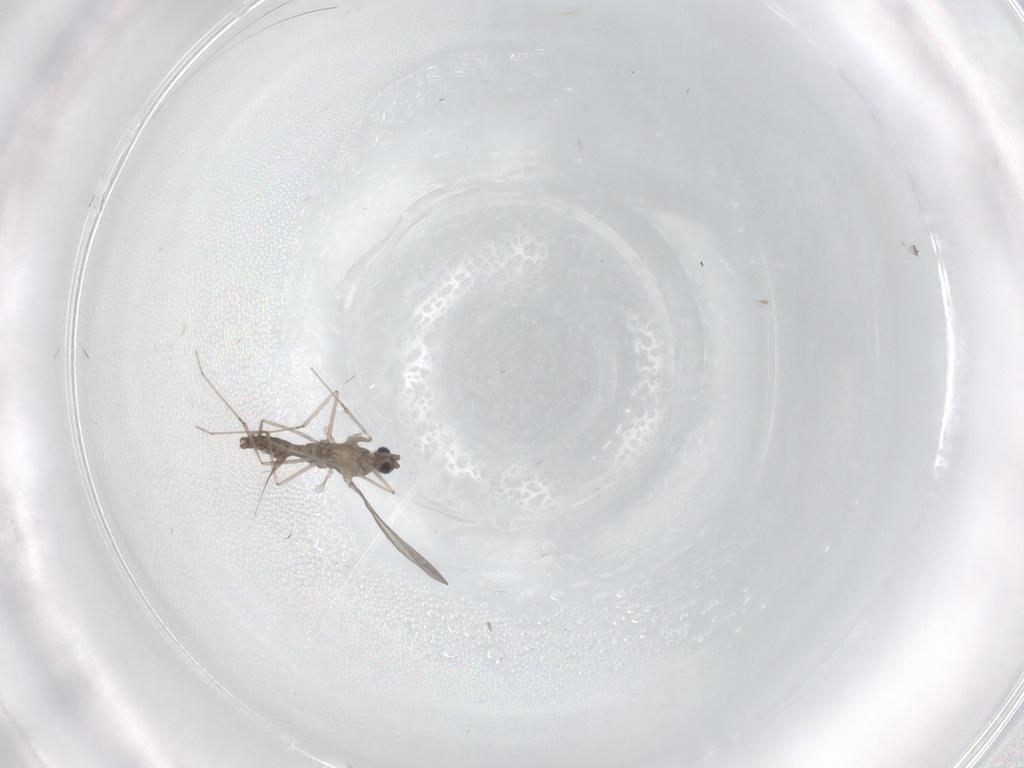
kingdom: Animalia
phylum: Arthropoda
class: Insecta
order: Diptera
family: Cecidomyiidae
